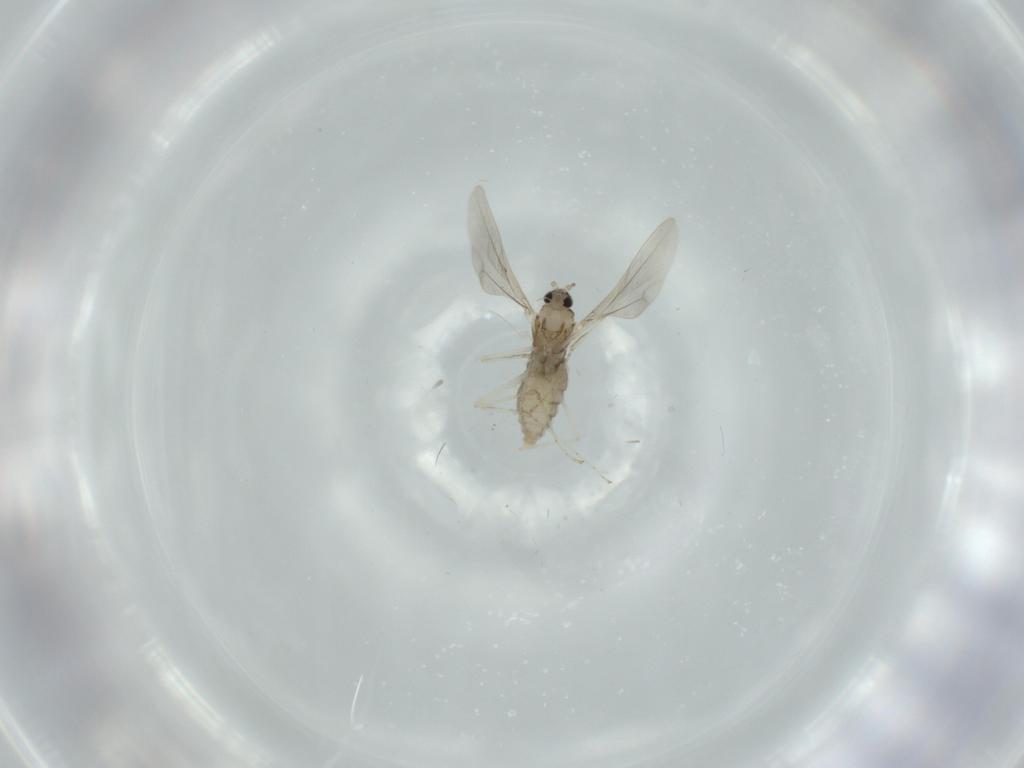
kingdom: Animalia
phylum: Arthropoda
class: Insecta
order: Diptera
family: Cecidomyiidae
